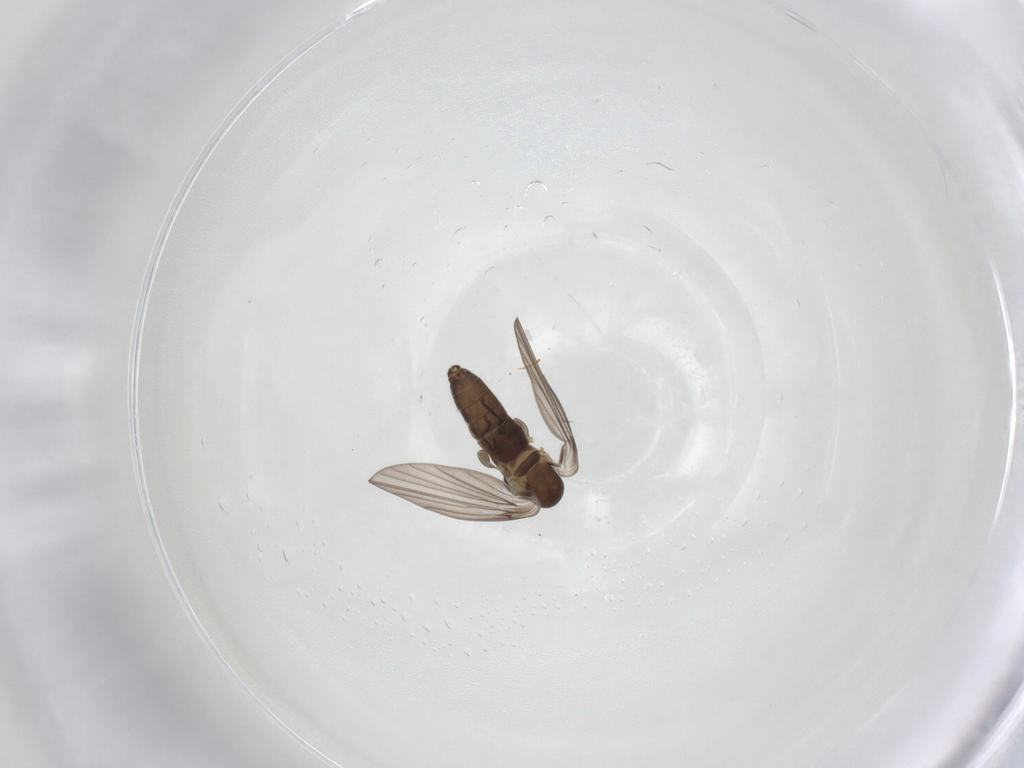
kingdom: Animalia
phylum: Arthropoda
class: Insecta
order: Diptera
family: Psychodidae
